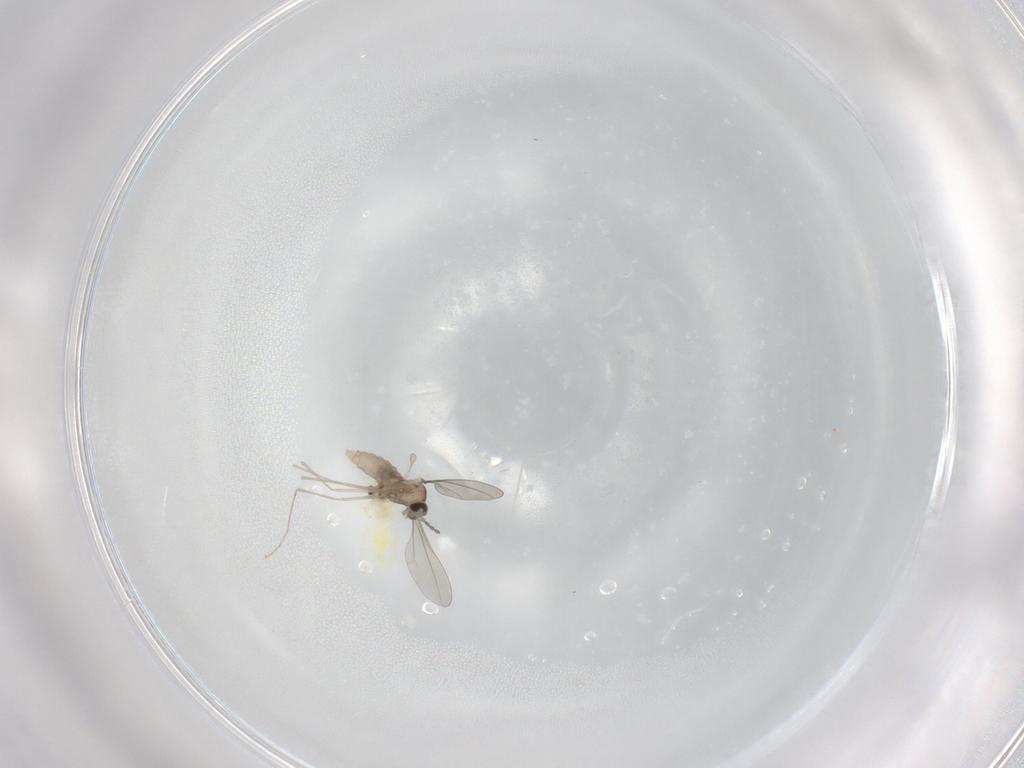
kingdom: Animalia
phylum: Arthropoda
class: Insecta
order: Hemiptera
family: Aleyrodidae
